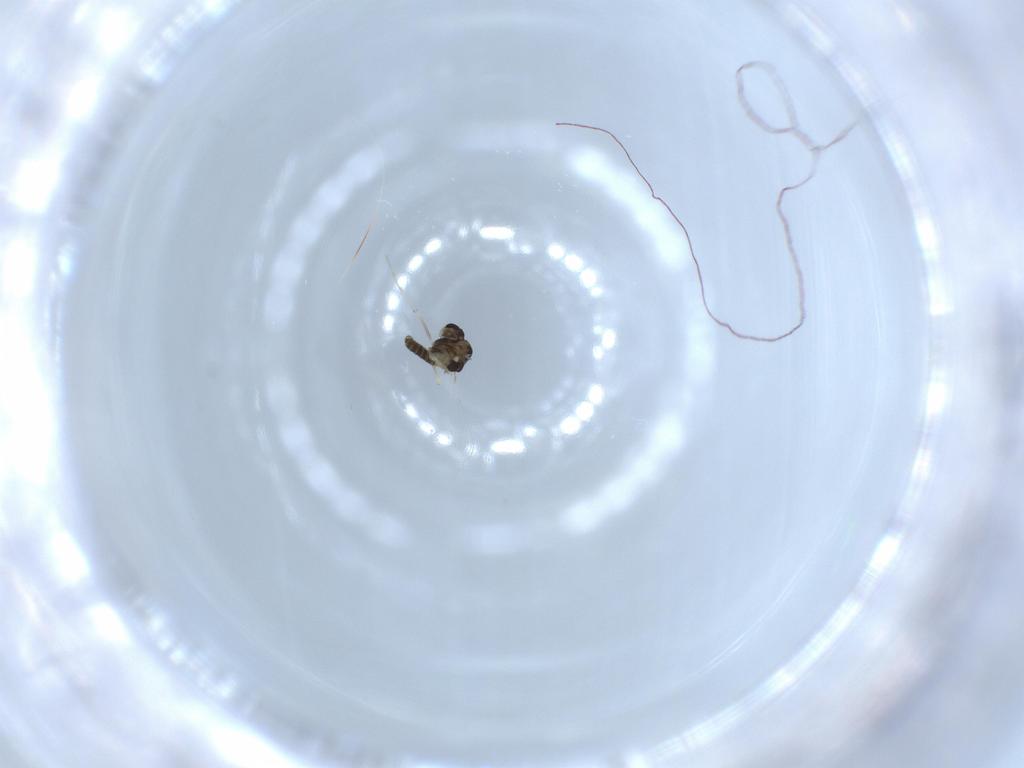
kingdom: Animalia
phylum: Arthropoda
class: Insecta
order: Diptera
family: Chironomidae
